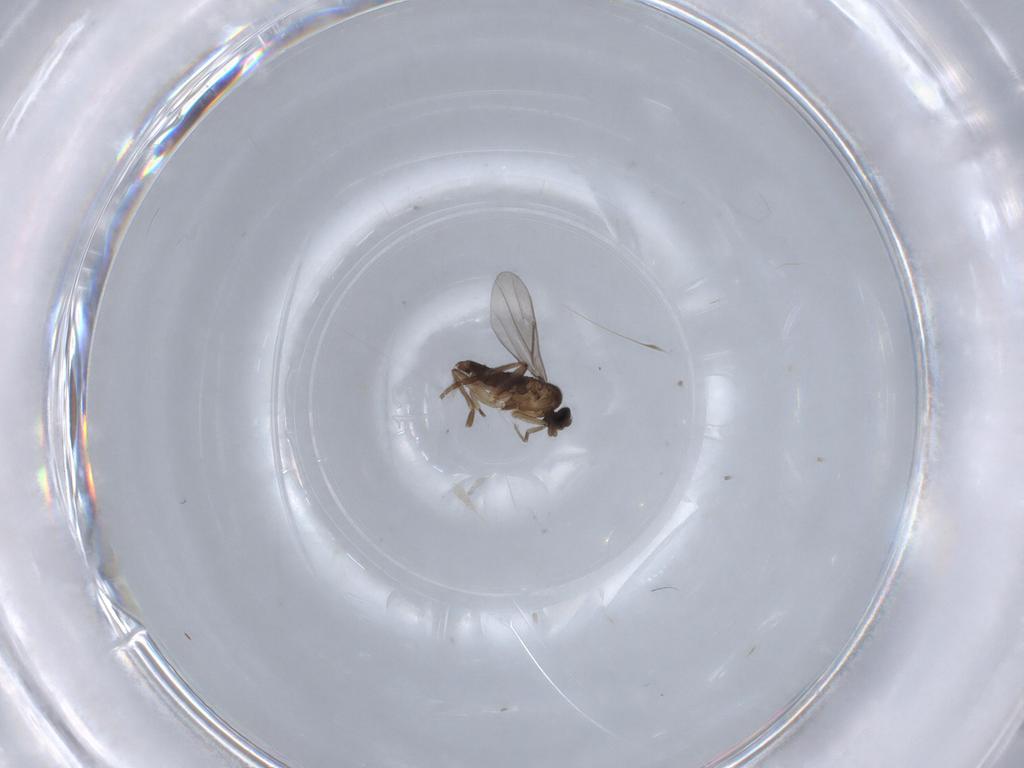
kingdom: Animalia
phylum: Arthropoda
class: Insecta
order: Diptera
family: Phoridae
